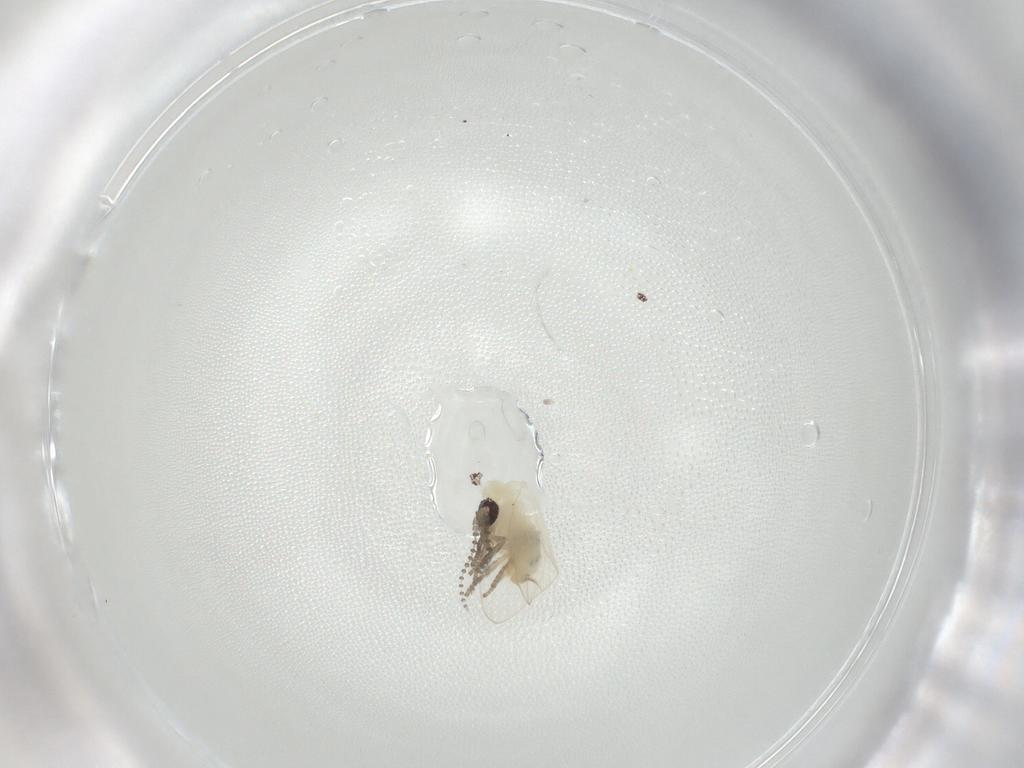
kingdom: Animalia
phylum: Arthropoda
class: Insecta
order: Diptera
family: Psychodidae
